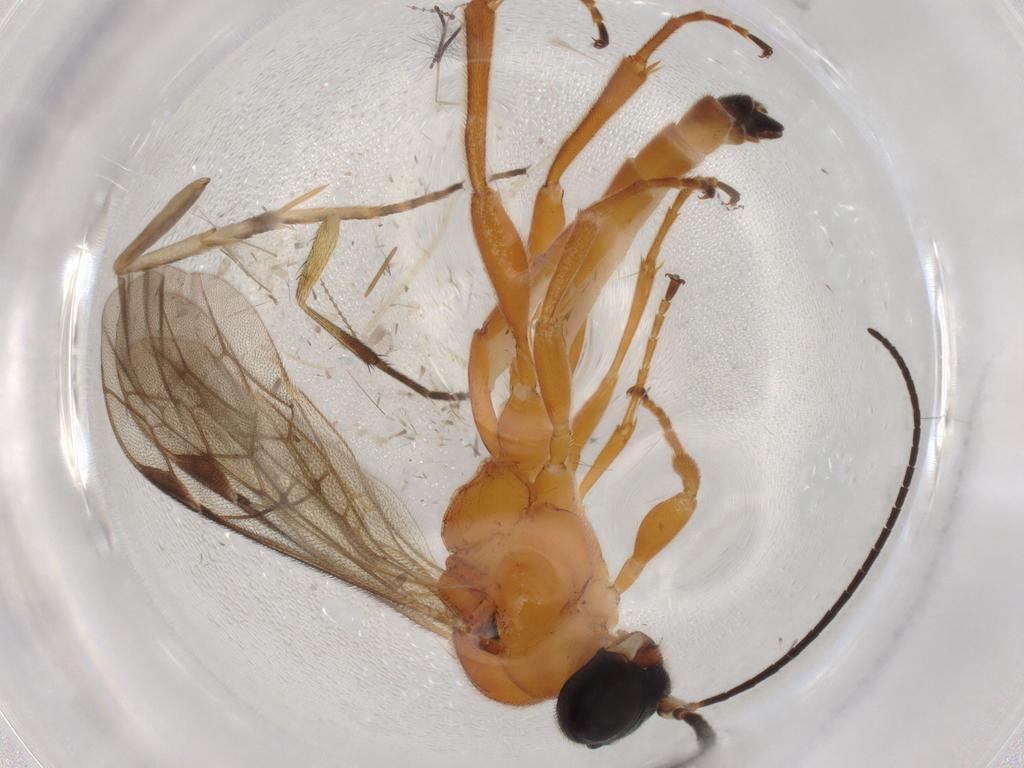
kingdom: Animalia
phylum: Arthropoda
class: Insecta
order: Hymenoptera
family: Ichneumonidae
